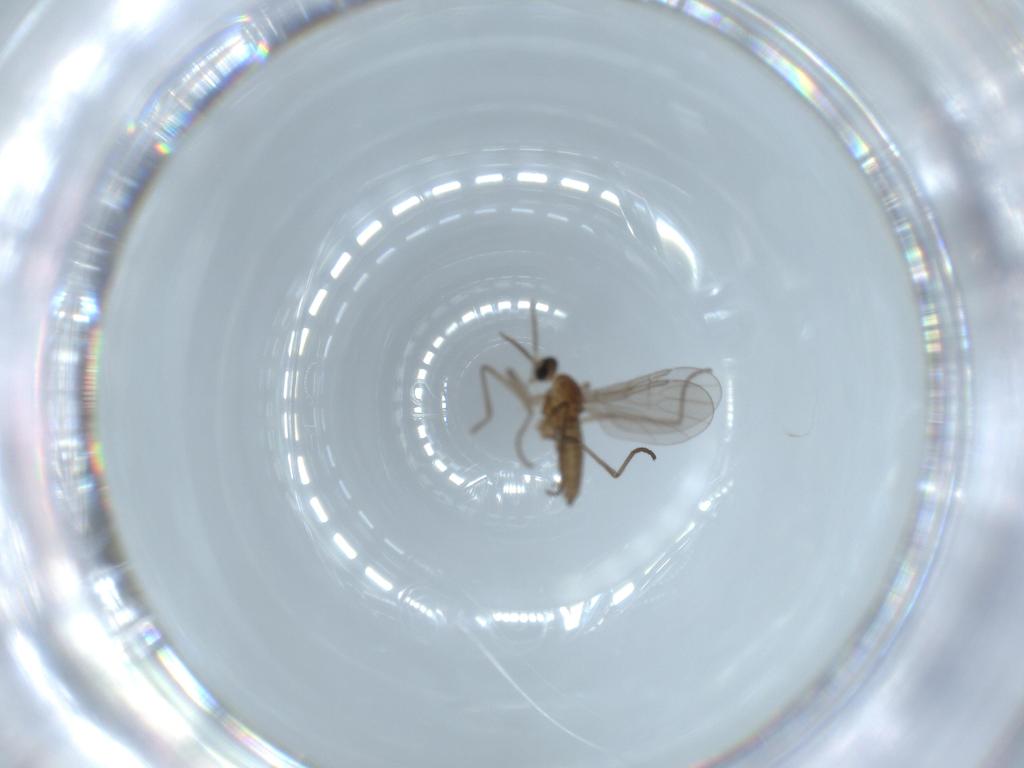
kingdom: Animalia
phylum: Arthropoda
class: Insecta
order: Diptera
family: Cecidomyiidae
